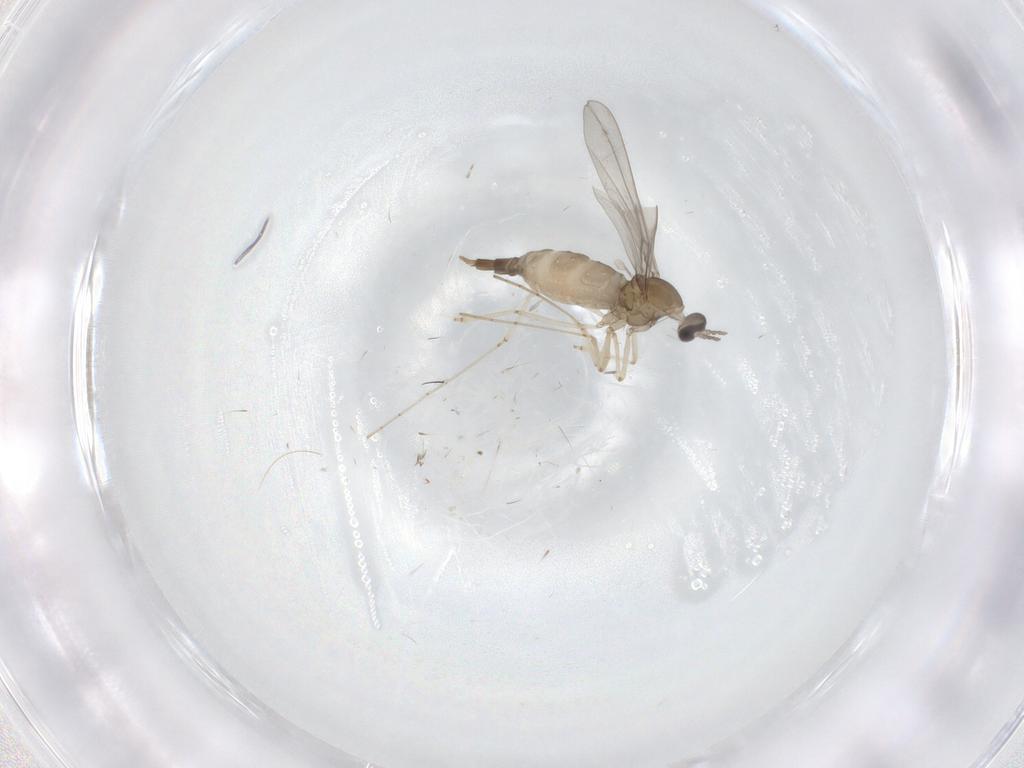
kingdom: Animalia
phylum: Arthropoda
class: Insecta
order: Diptera
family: Cecidomyiidae
